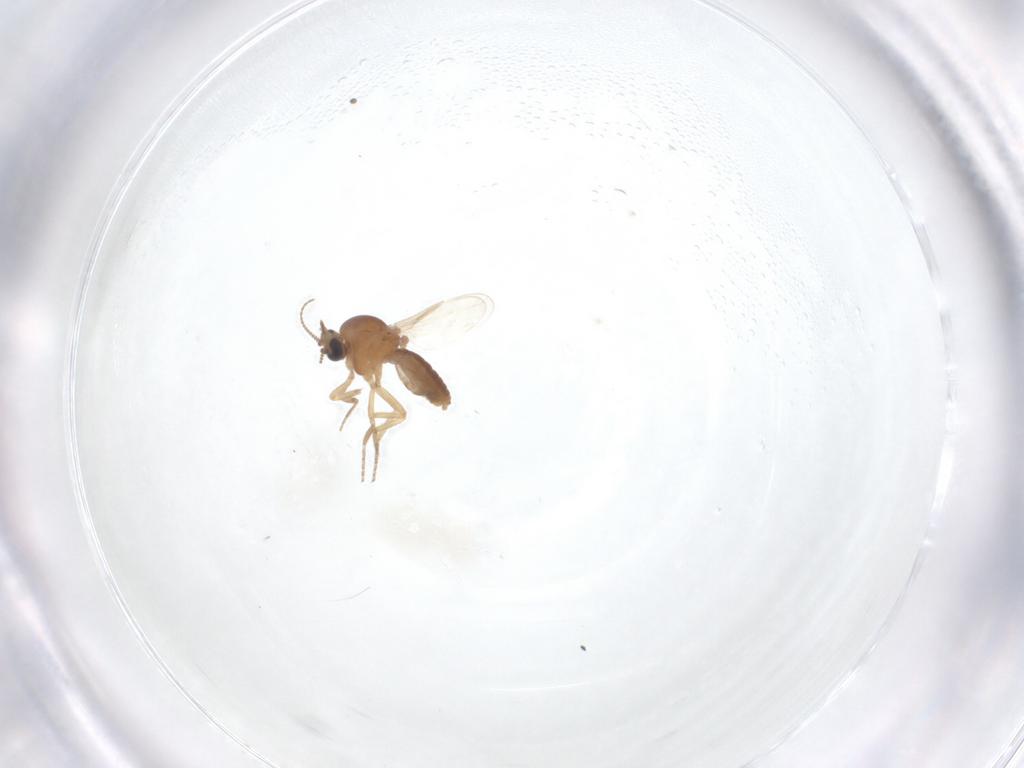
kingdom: Animalia
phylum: Arthropoda
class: Insecta
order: Diptera
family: Ceratopogonidae
